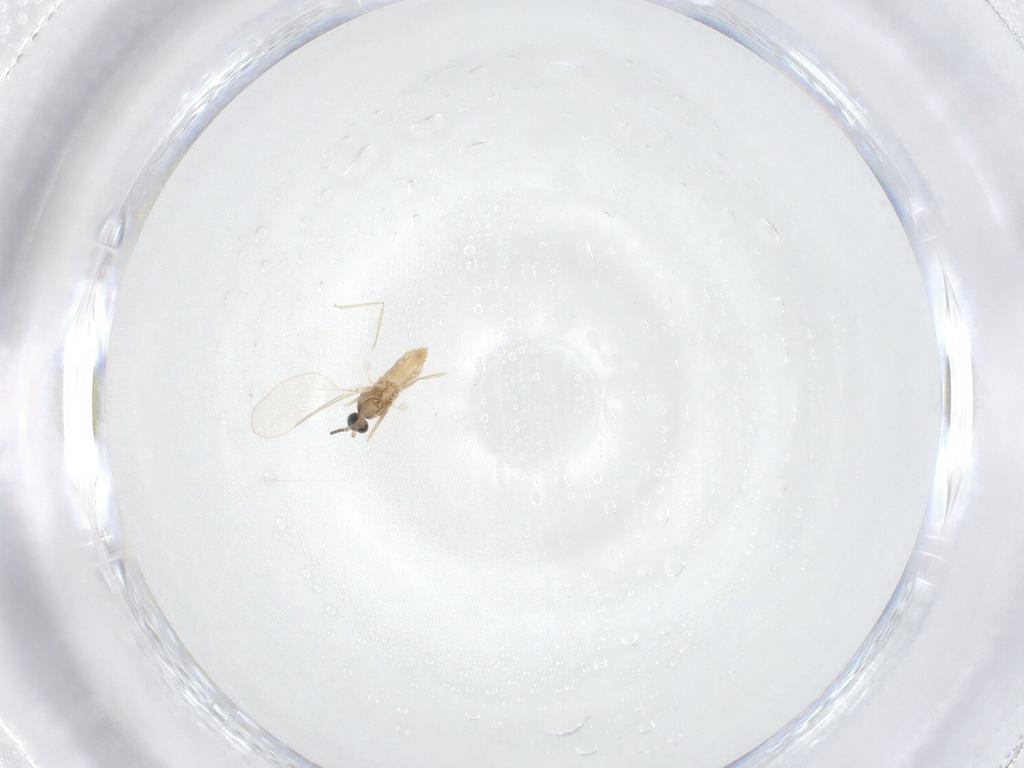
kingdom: Animalia
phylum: Arthropoda
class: Insecta
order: Diptera
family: Cecidomyiidae
